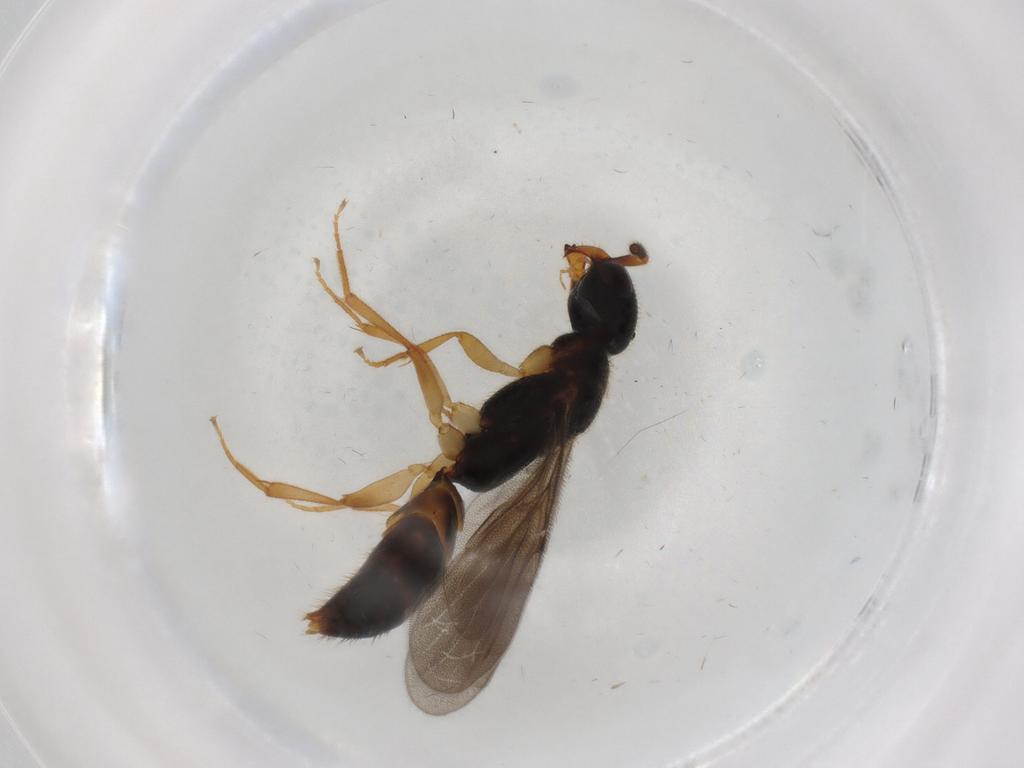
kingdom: Animalia
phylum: Arthropoda
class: Insecta
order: Hymenoptera
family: Bethylidae
